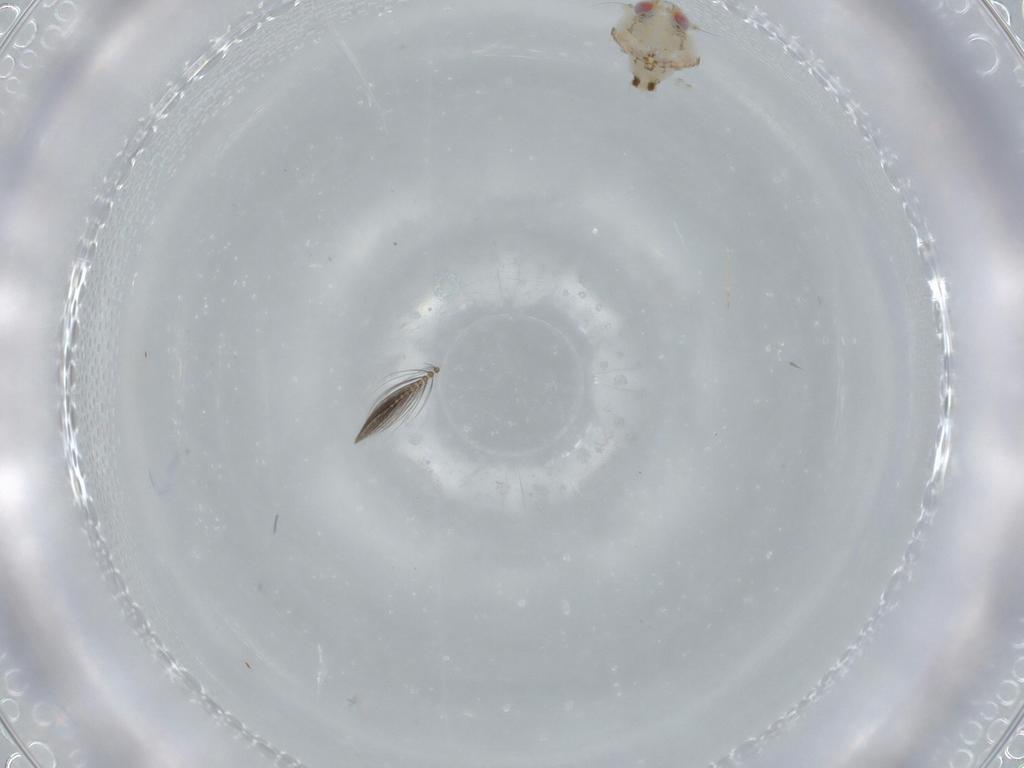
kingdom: Animalia
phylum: Arthropoda
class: Insecta
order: Diptera
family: Ceratopogonidae
